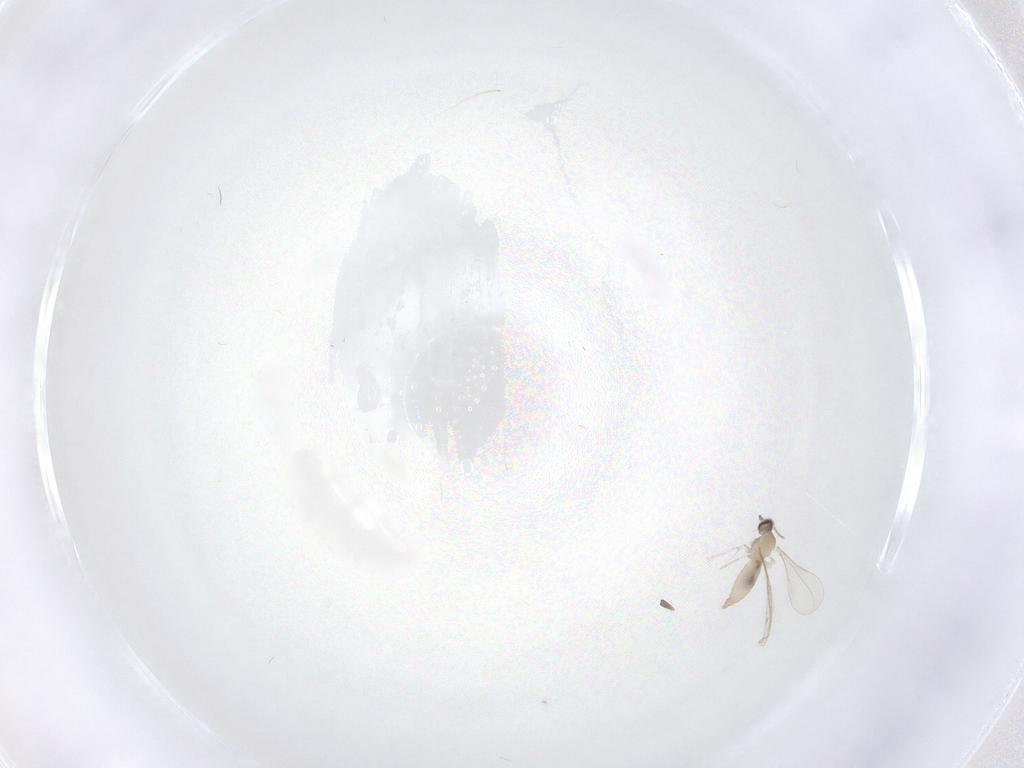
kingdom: Animalia
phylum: Arthropoda
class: Insecta
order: Diptera
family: Cecidomyiidae
